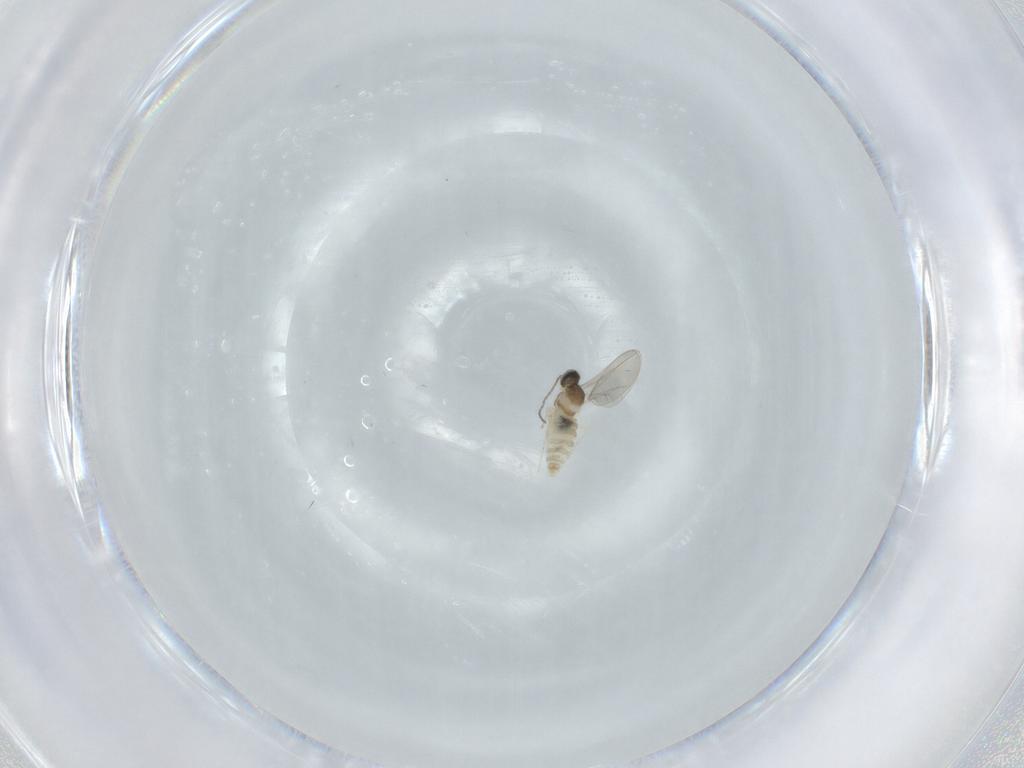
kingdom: Animalia
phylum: Arthropoda
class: Insecta
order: Diptera
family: Cecidomyiidae
